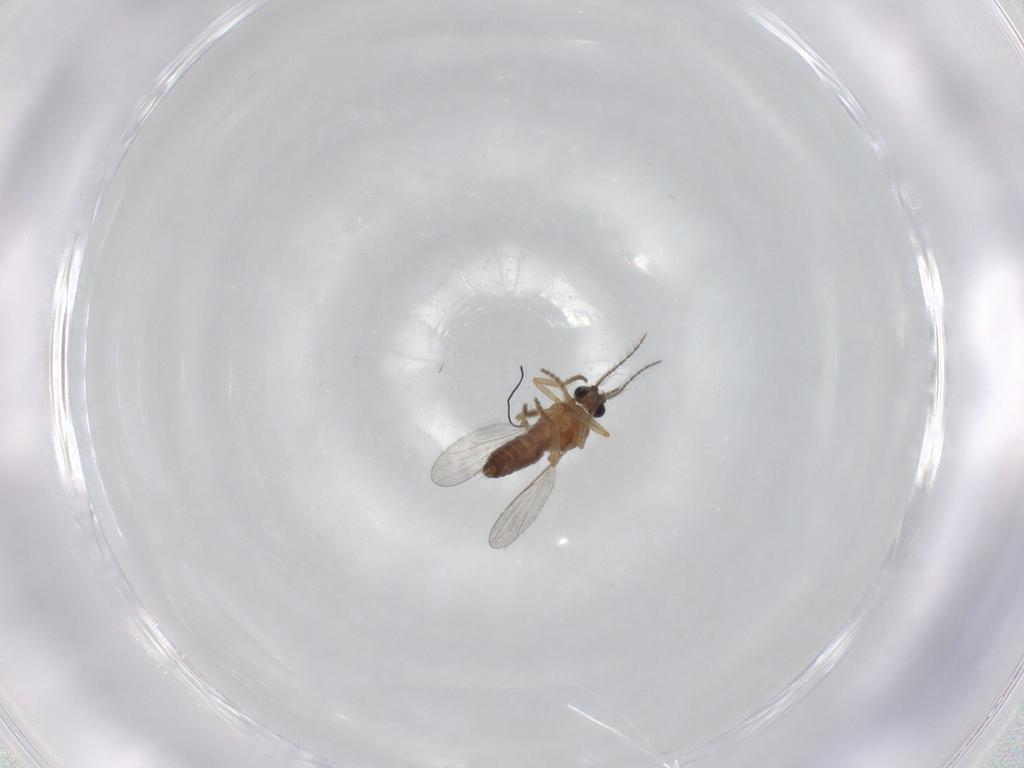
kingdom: Animalia
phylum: Arthropoda
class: Insecta
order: Diptera
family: Ceratopogonidae
